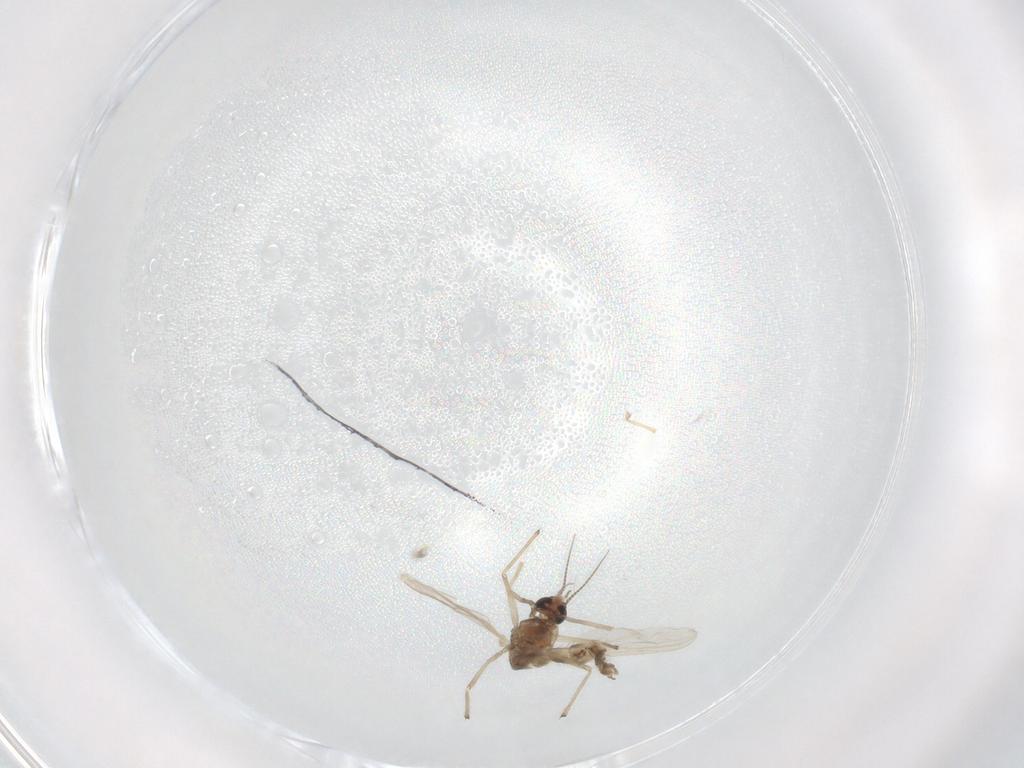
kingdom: Animalia
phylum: Arthropoda
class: Insecta
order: Diptera
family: Chironomidae
